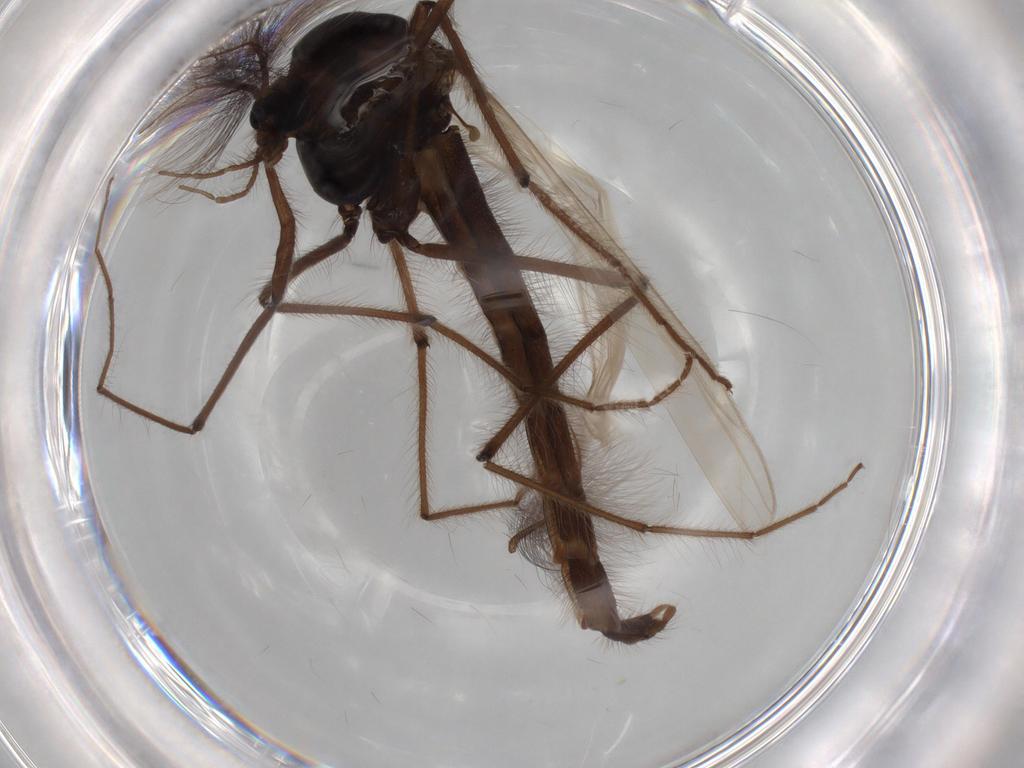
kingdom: Animalia
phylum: Arthropoda
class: Insecta
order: Diptera
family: Chironomidae
